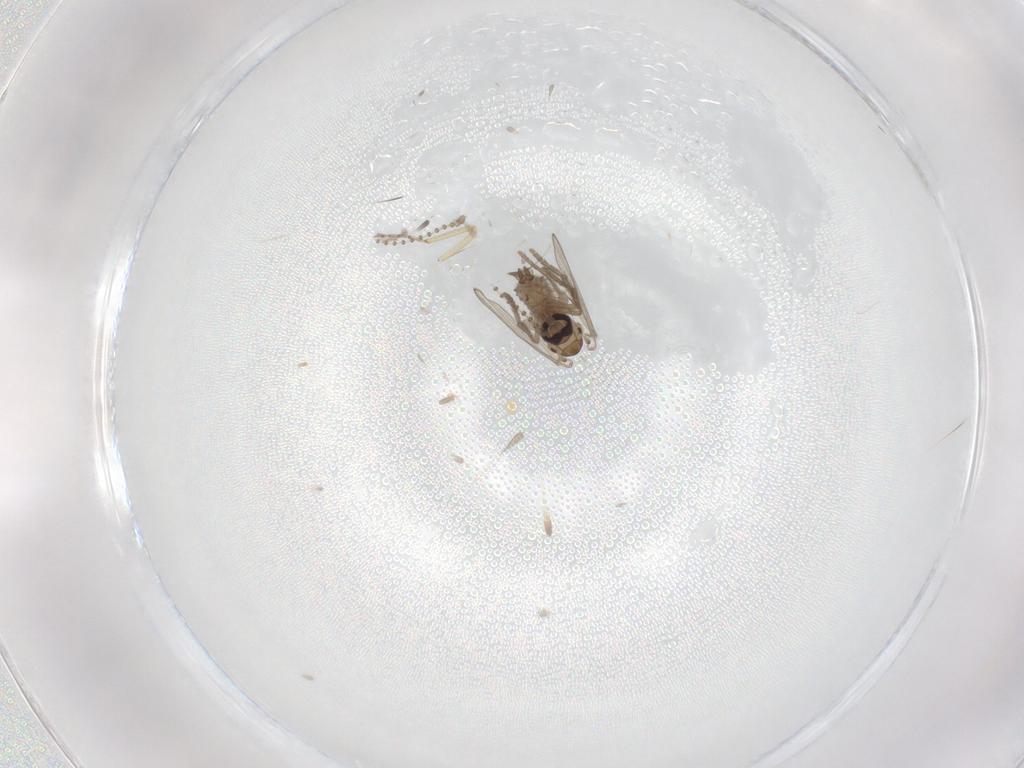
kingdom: Animalia
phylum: Arthropoda
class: Insecta
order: Diptera
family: Psychodidae
